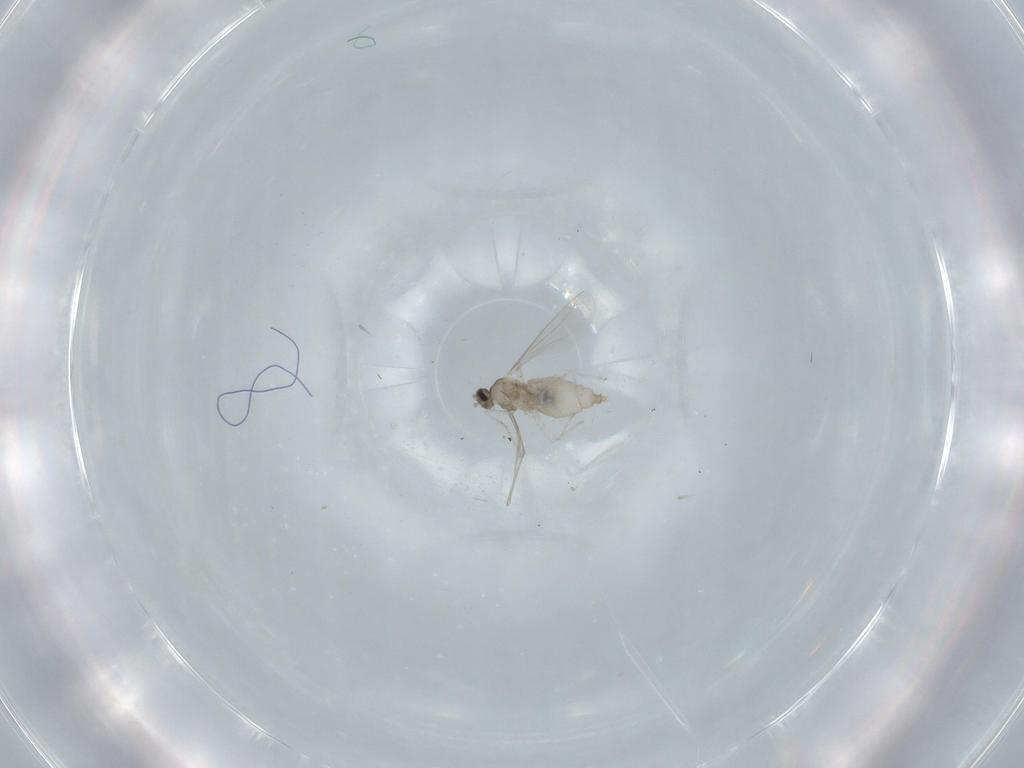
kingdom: Animalia
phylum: Arthropoda
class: Insecta
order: Diptera
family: Cecidomyiidae
